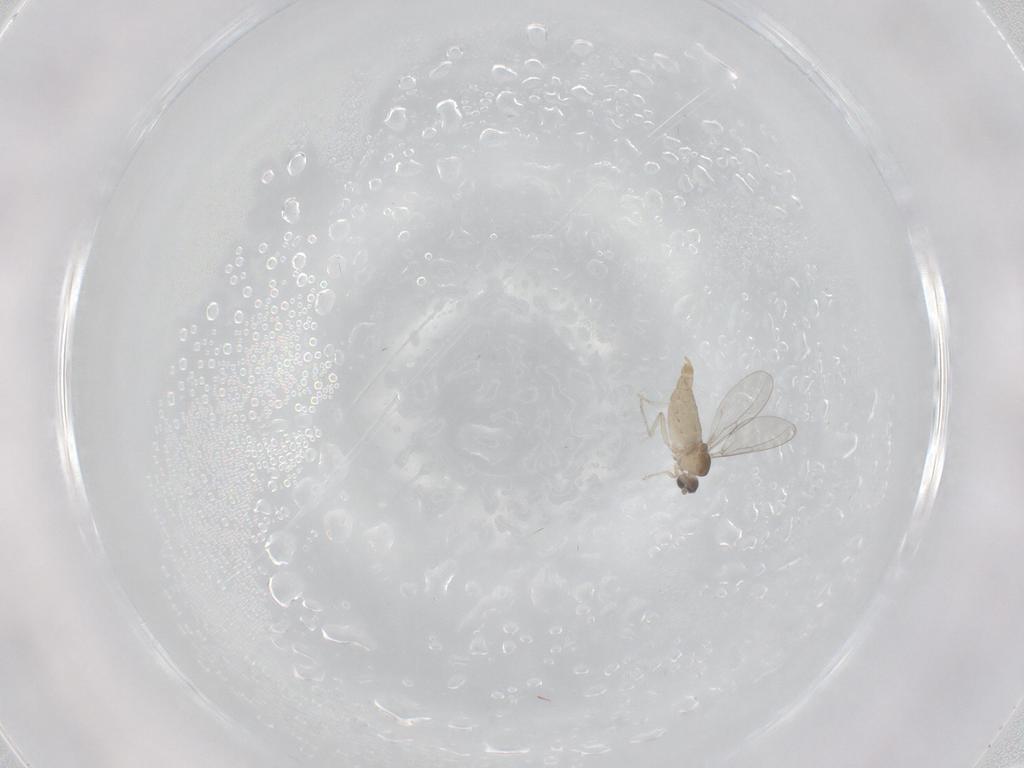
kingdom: Animalia
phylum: Arthropoda
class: Insecta
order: Diptera
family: Cecidomyiidae
